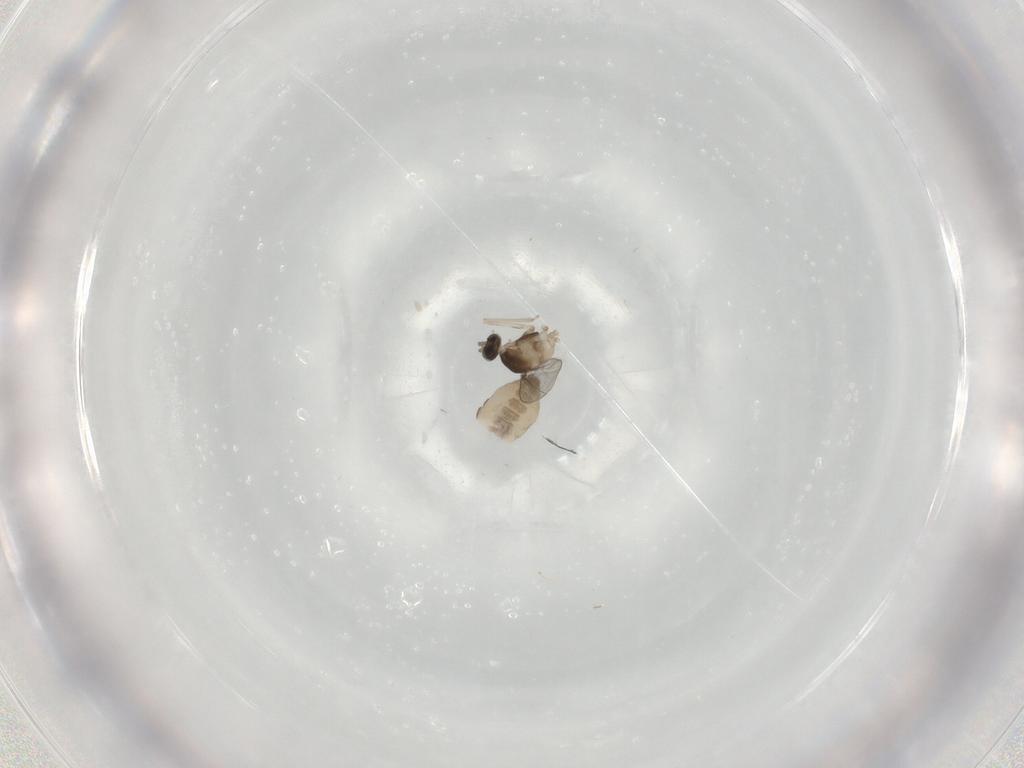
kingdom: Animalia
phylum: Arthropoda
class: Insecta
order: Diptera
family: Cecidomyiidae
